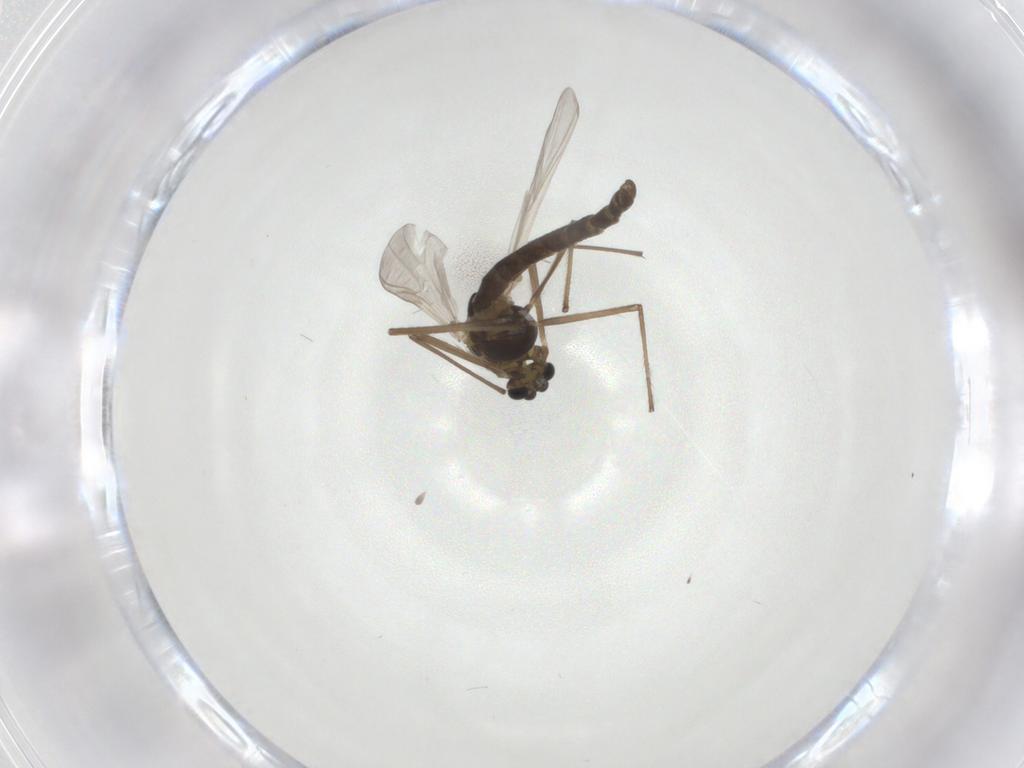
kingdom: Animalia
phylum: Arthropoda
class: Insecta
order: Diptera
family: Chironomidae
